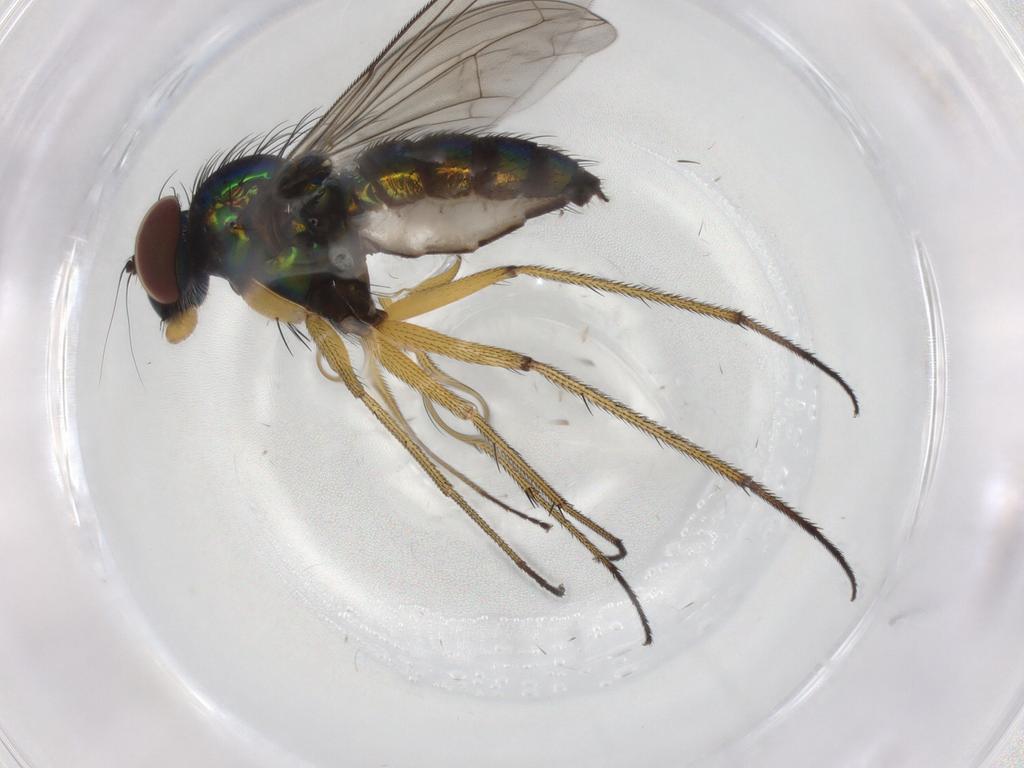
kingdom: Animalia
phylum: Arthropoda
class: Insecta
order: Diptera
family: Dolichopodidae
